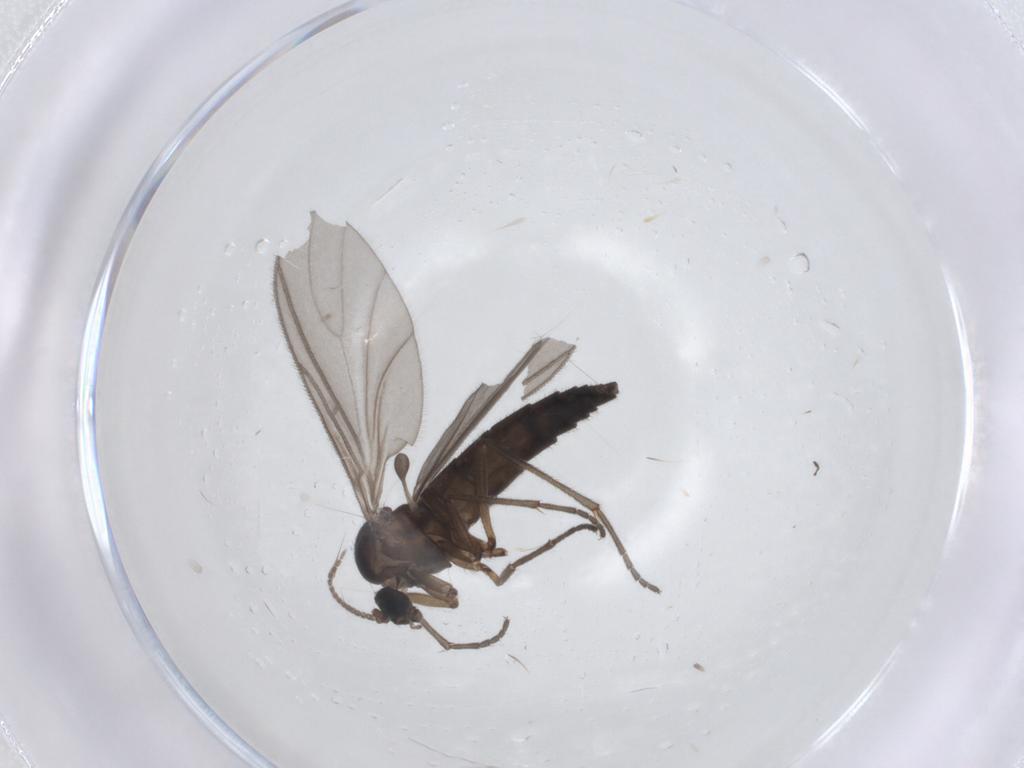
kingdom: Animalia
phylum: Arthropoda
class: Insecta
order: Diptera
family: Sciaridae
